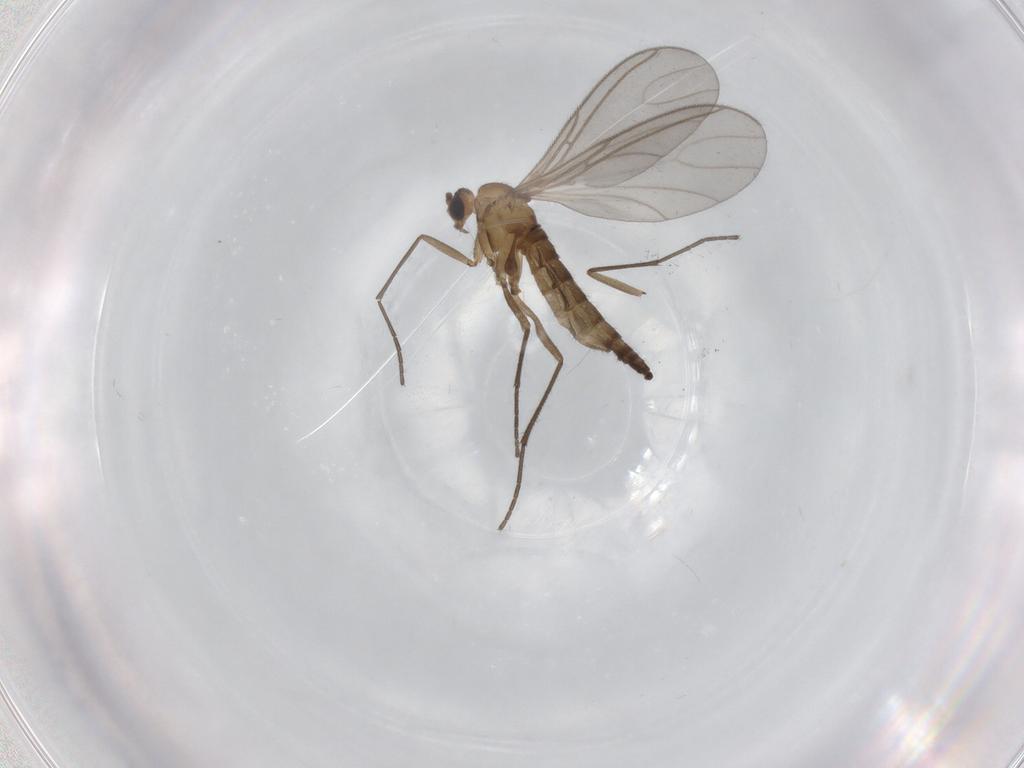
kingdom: Animalia
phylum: Arthropoda
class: Insecta
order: Diptera
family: Sciaridae
